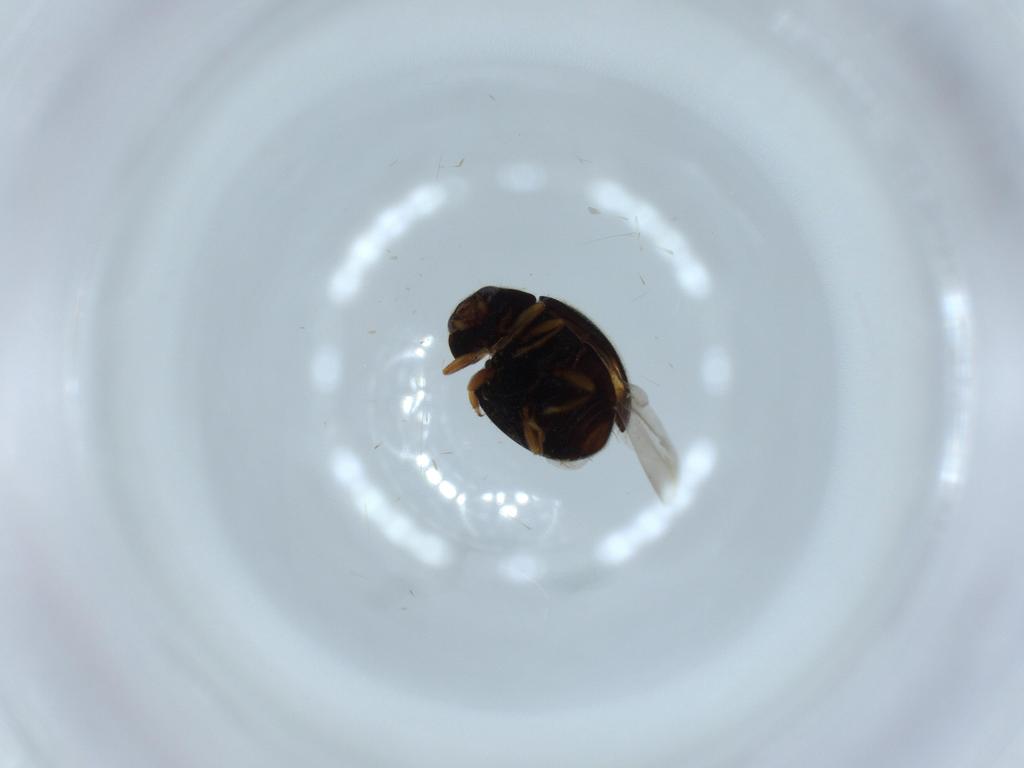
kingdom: Animalia
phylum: Arthropoda
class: Insecta
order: Coleoptera
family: Coccinellidae
